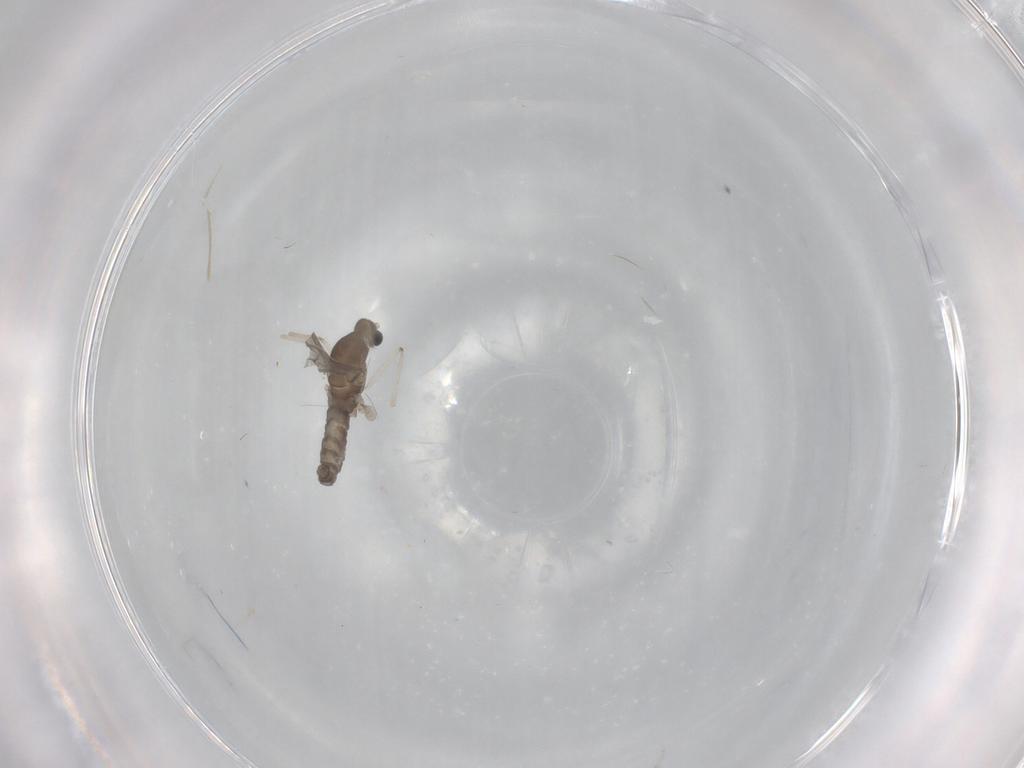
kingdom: Animalia
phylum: Arthropoda
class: Insecta
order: Diptera
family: Phoridae
